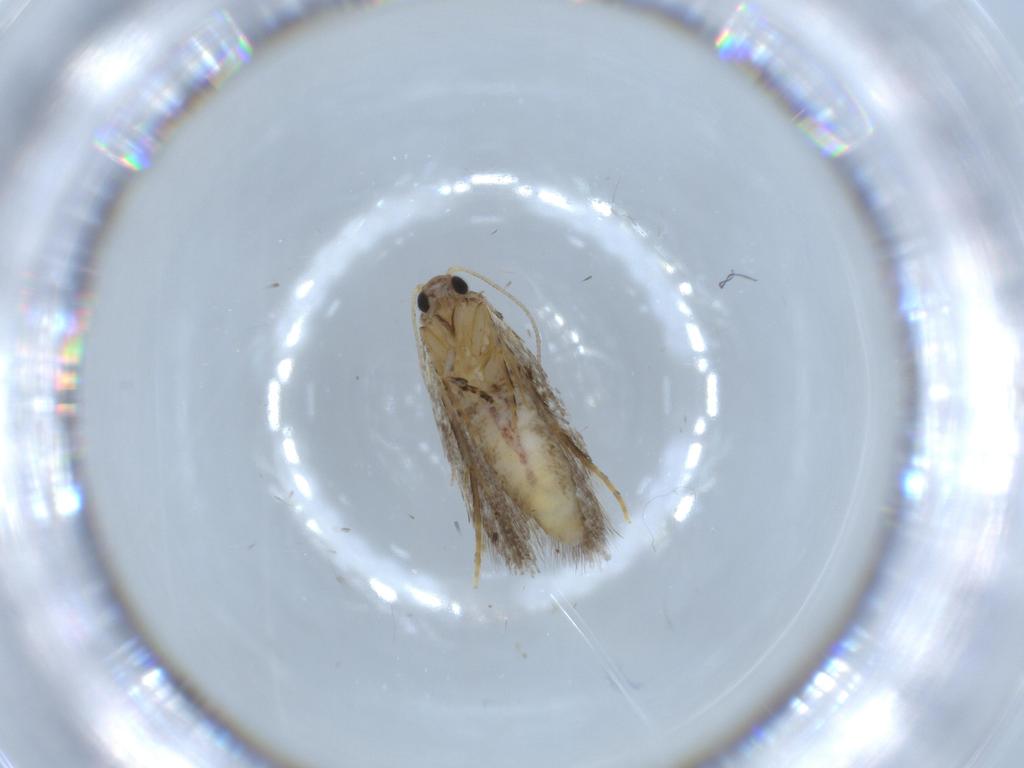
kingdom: Animalia
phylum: Arthropoda
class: Insecta
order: Lepidoptera
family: Meessiidae
